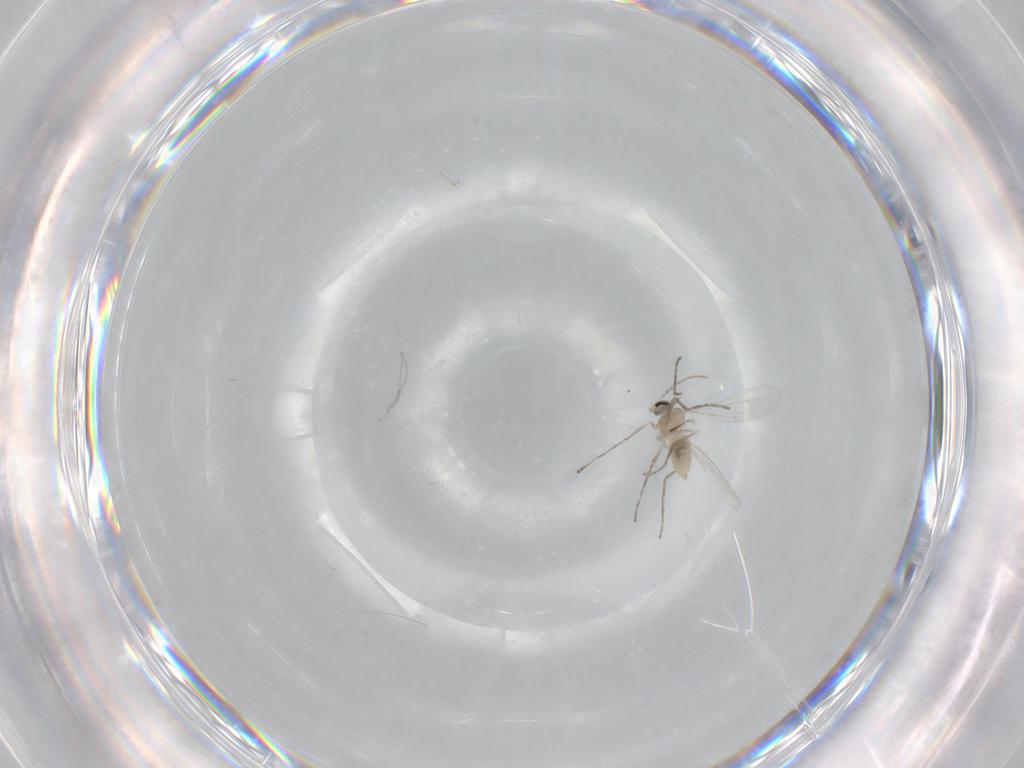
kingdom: Animalia
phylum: Arthropoda
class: Insecta
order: Diptera
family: Cecidomyiidae
